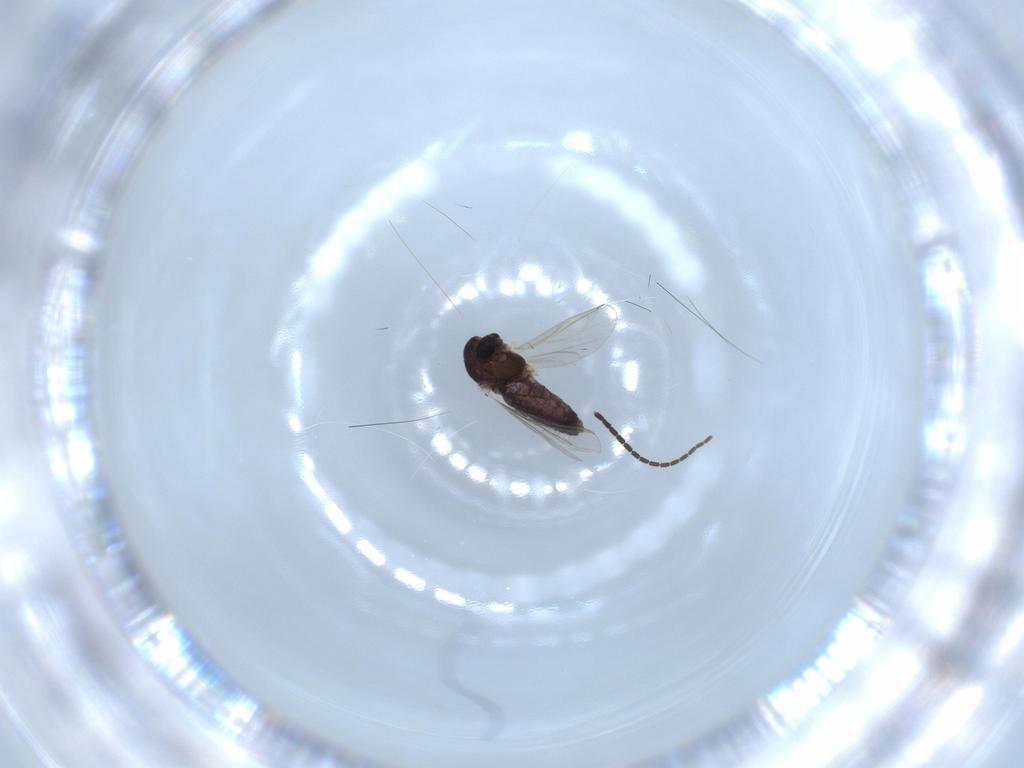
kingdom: Animalia
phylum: Arthropoda
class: Insecta
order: Diptera
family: Chironomidae
